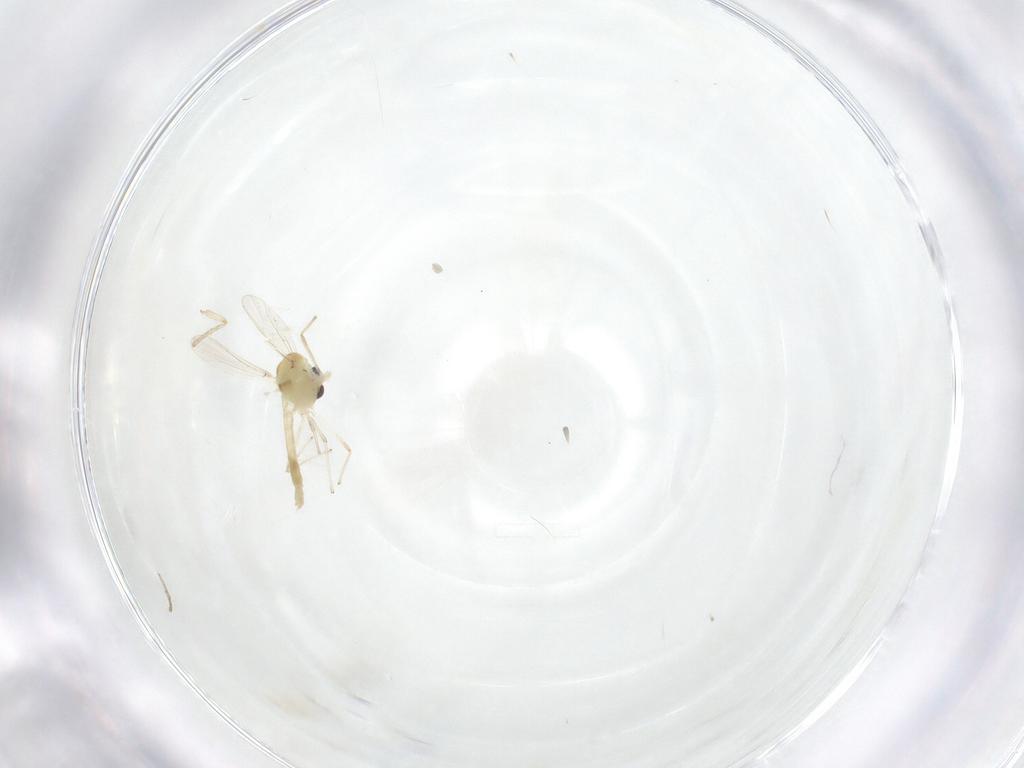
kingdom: Animalia
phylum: Arthropoda
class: Insecta
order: Diptera
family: Chironomidae
